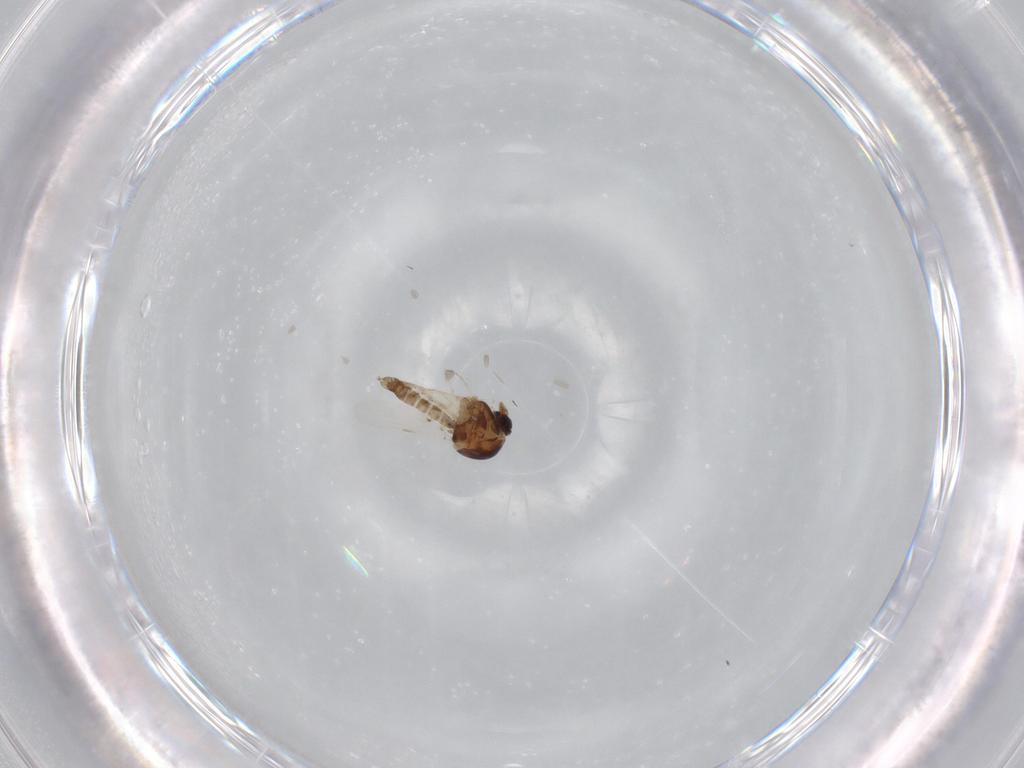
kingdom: Animalia
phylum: Arthropoda
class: Insecta
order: Diptera
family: Ceratopogonidae
